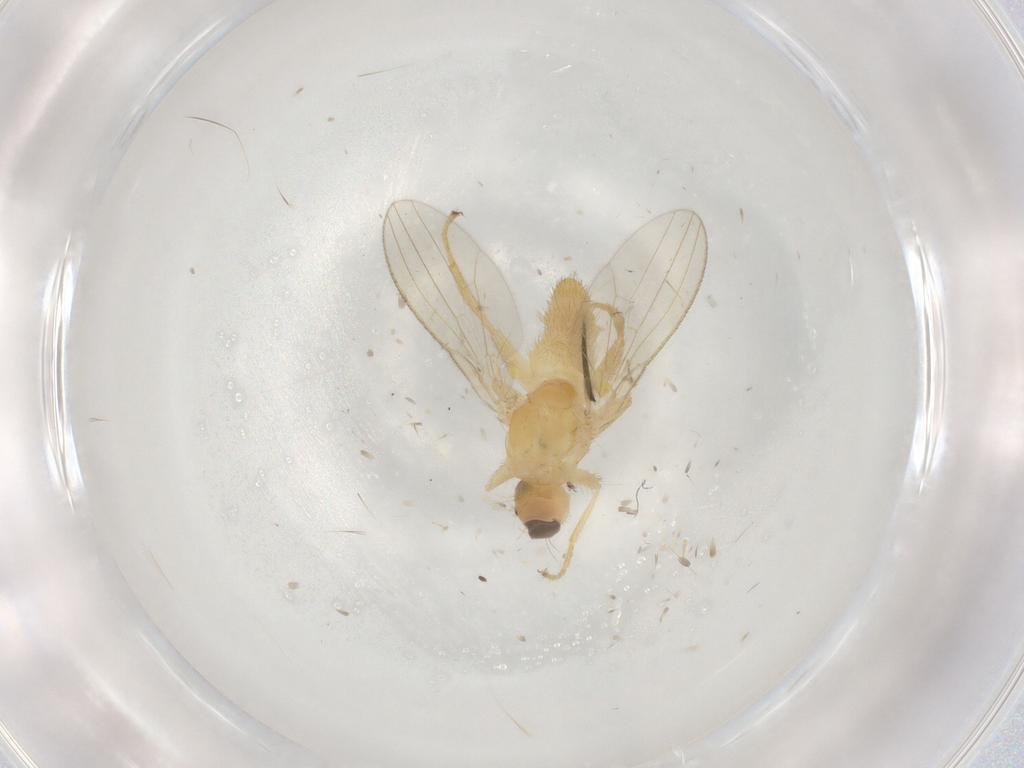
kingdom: Animalia
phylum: Arthropoda
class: Insecta
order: Diptera
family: Chyromyidae
